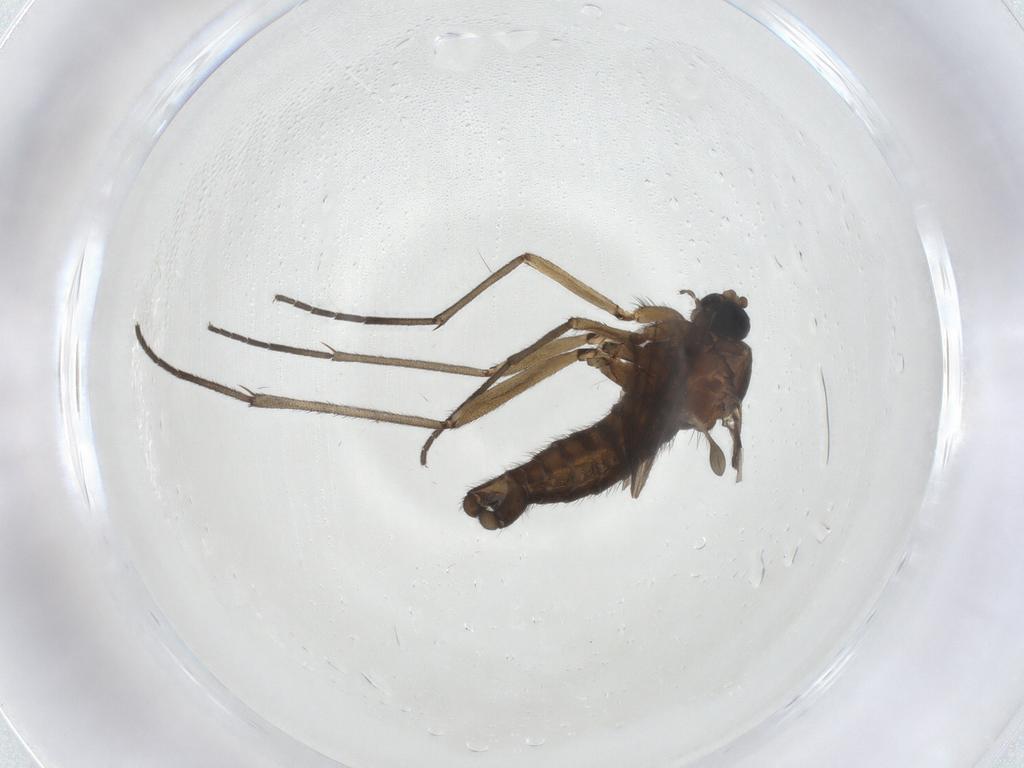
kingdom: Animalia
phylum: Arthropoda
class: Insecta
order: Diptera
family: Sciaridae
